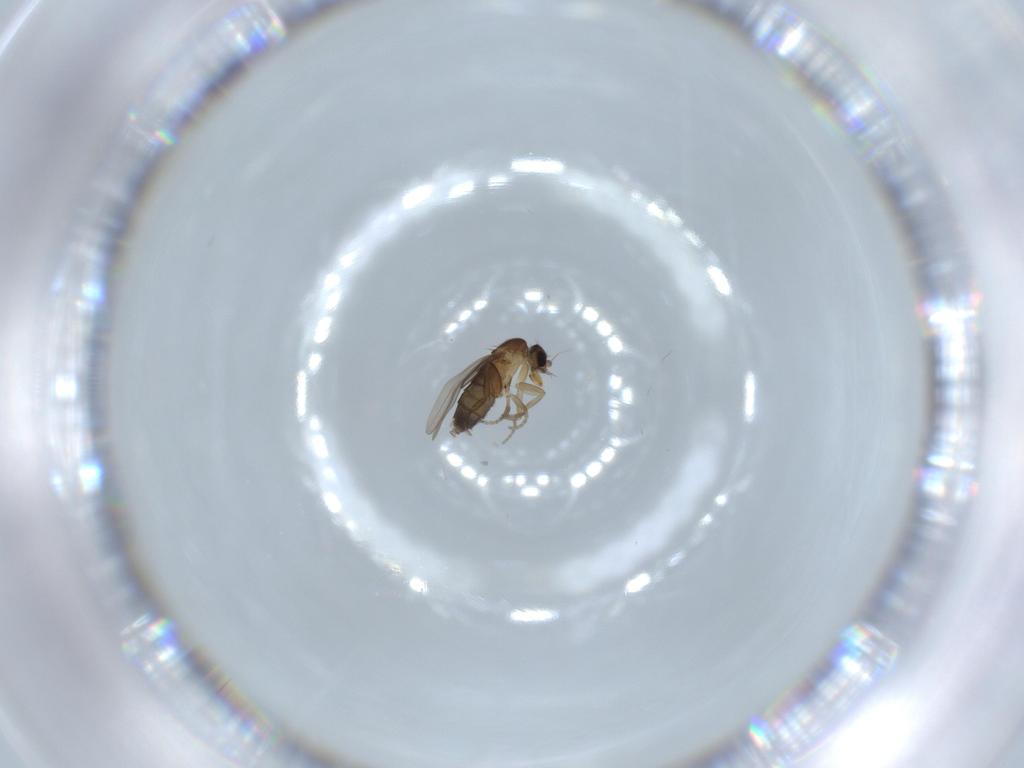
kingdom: Animalia
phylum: Arthropoda
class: Insecta
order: Diptera
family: Phoridae
